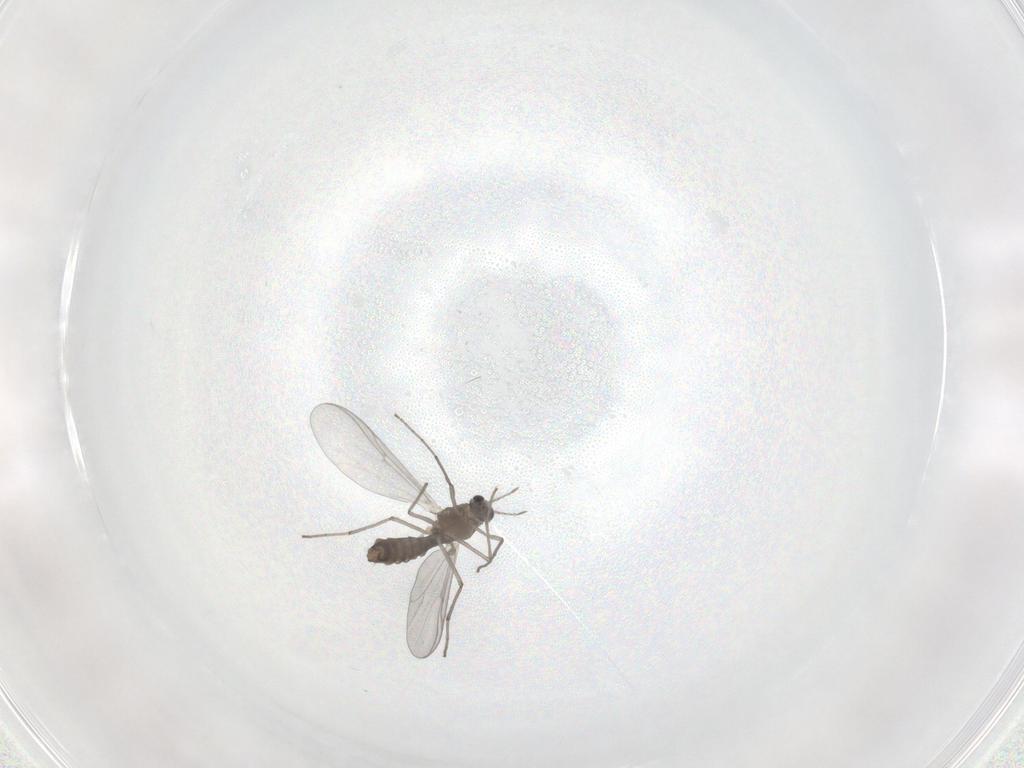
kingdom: Animalia
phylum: Arthropoda
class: Insecta
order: Diptera
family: Chironomidae
